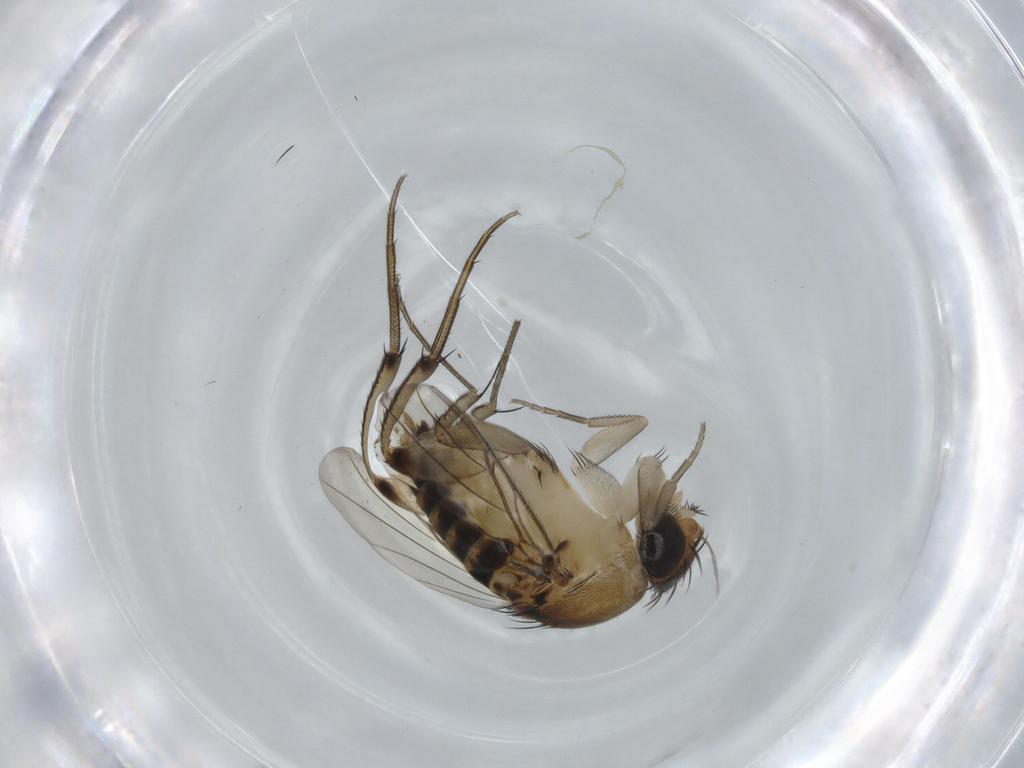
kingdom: Animalia
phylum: Arthropoda
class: Insecta
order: Diptera
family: Phoridae
